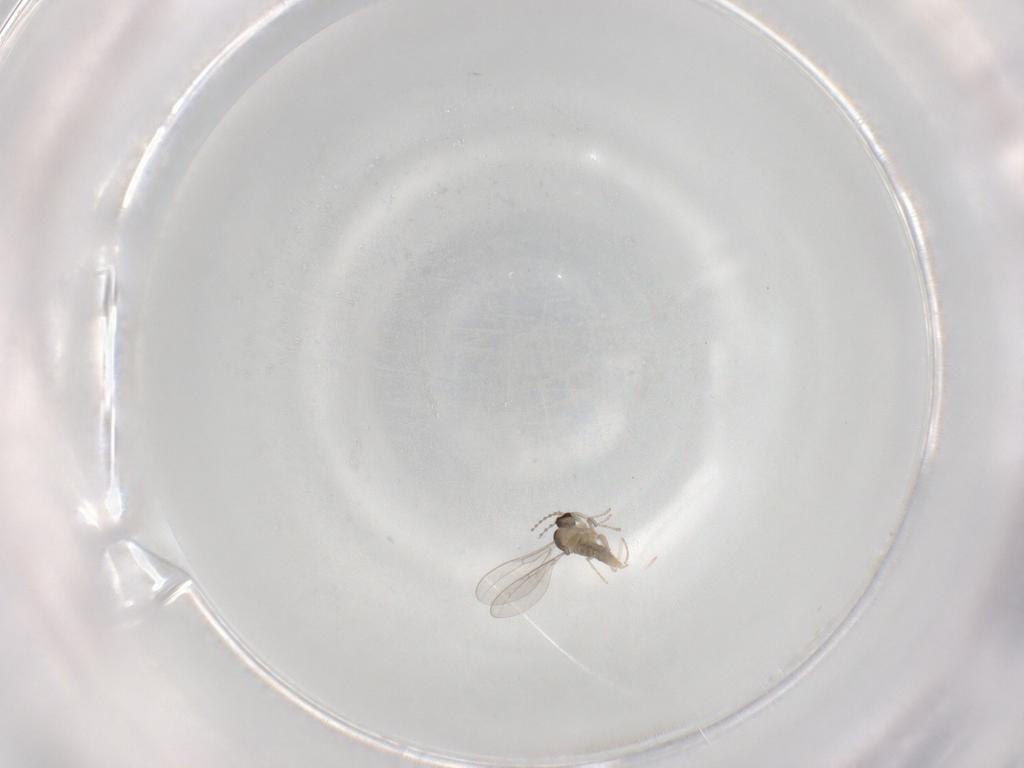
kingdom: Animalia
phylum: Arthropoda
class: Insecta
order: Diptera
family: Cecidomyiidae
